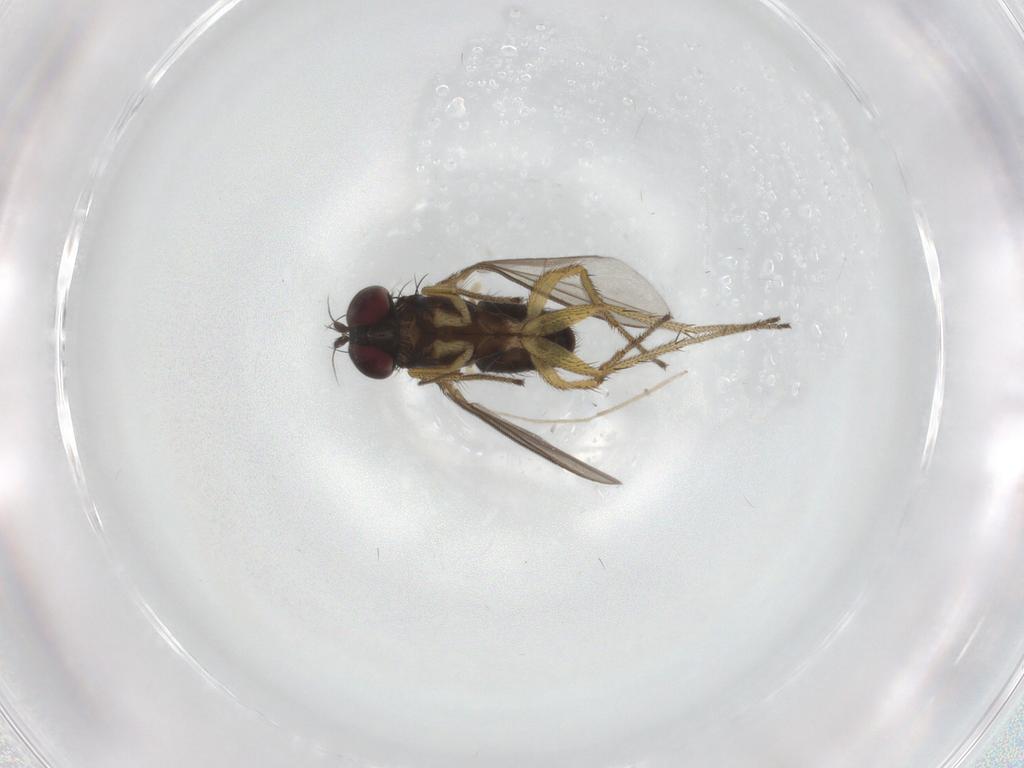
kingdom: Animalia
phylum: Arthropoda
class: Insecta
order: Diptera
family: Chironomidae
